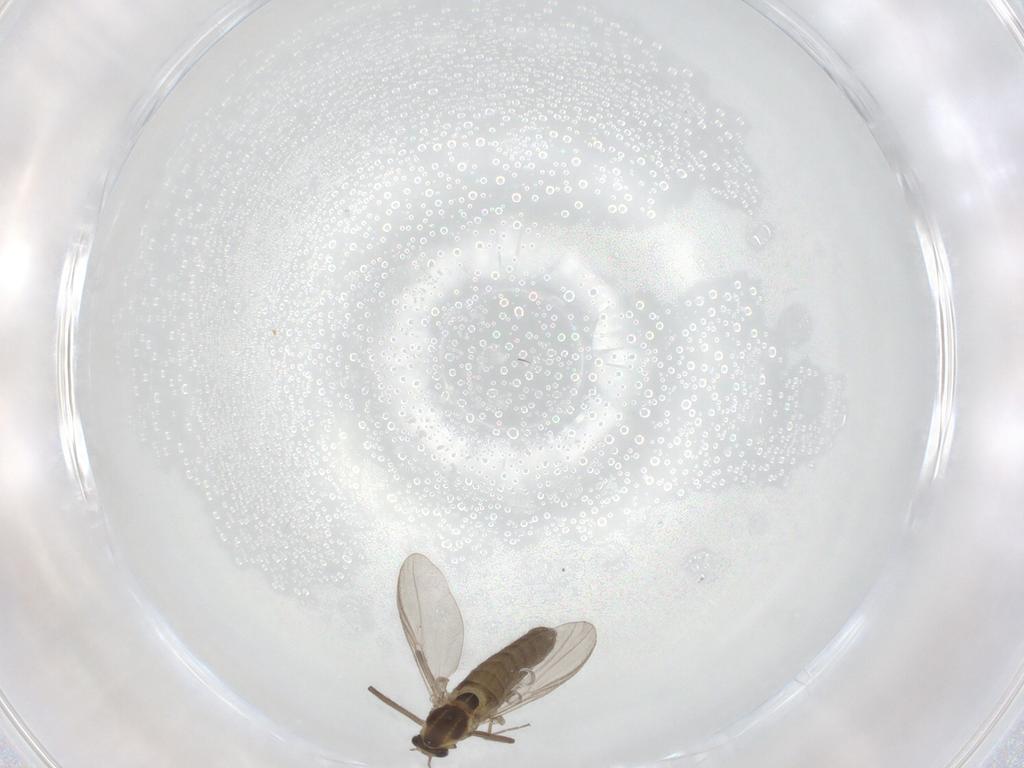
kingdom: Animalia
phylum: Arthropoda
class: Insecta
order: Diptera
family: Chironomidae
